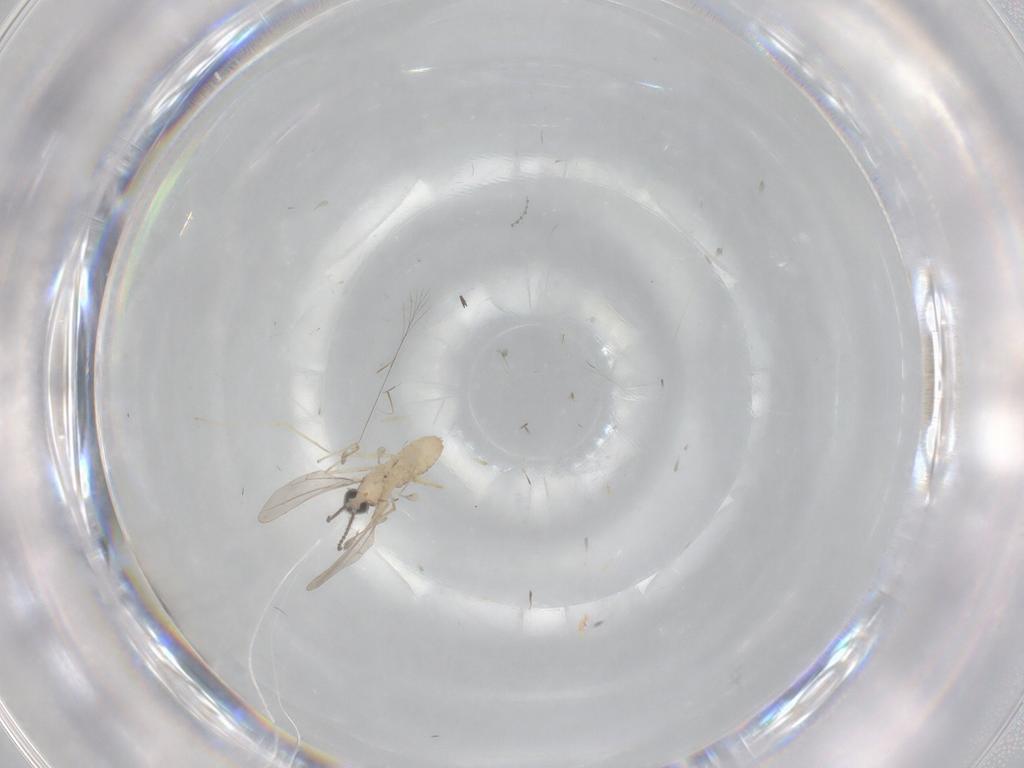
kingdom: Animalia
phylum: Arthropoda
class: Insecta
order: Diptera
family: Cecidomyiidae
